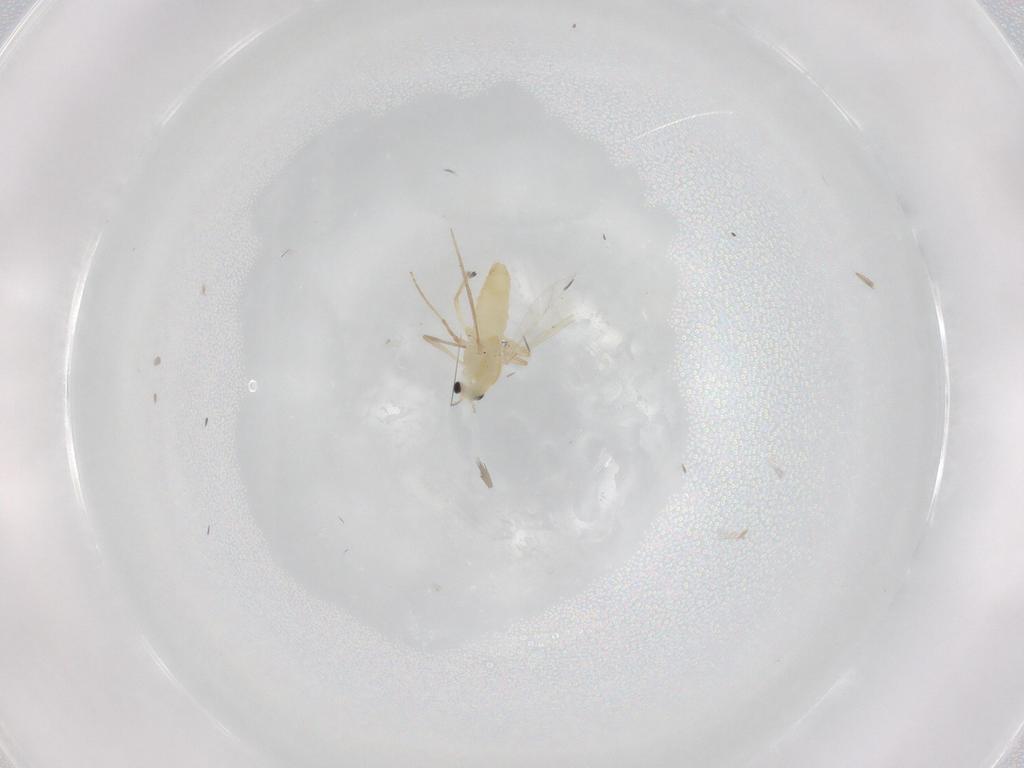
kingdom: Animalia
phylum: Arthropoda
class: Insecta
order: Diptera
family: Chironomidae
